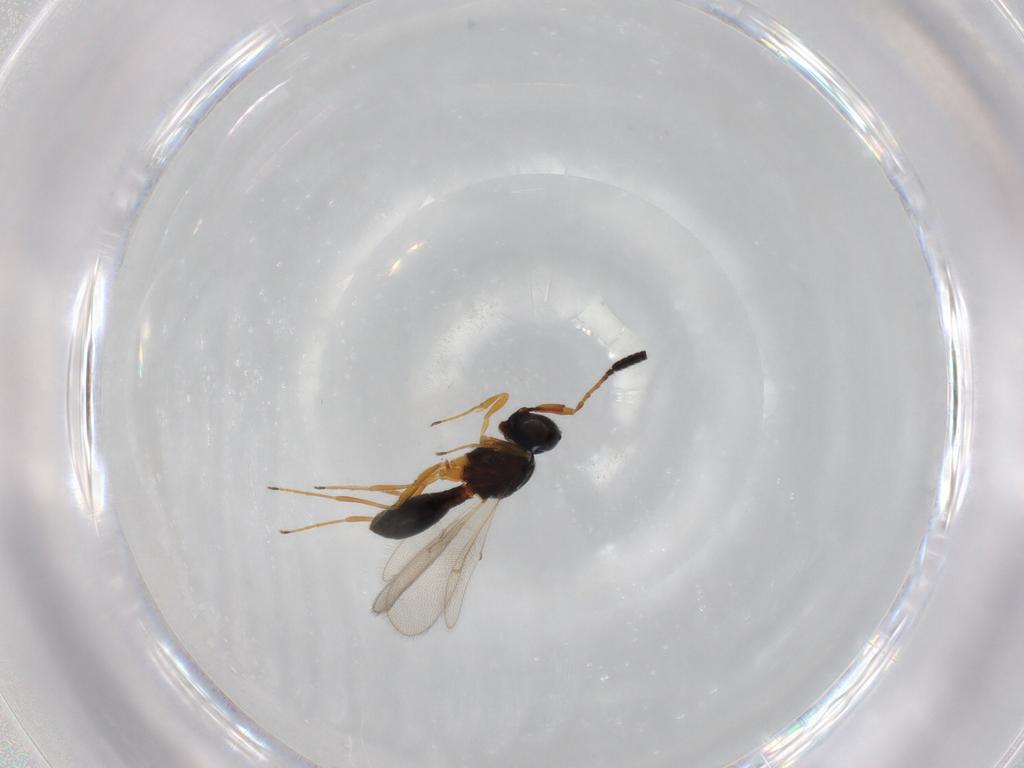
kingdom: Animalia
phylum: Arthropoda
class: Insecta
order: Hymenoptera
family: Scelionidae
